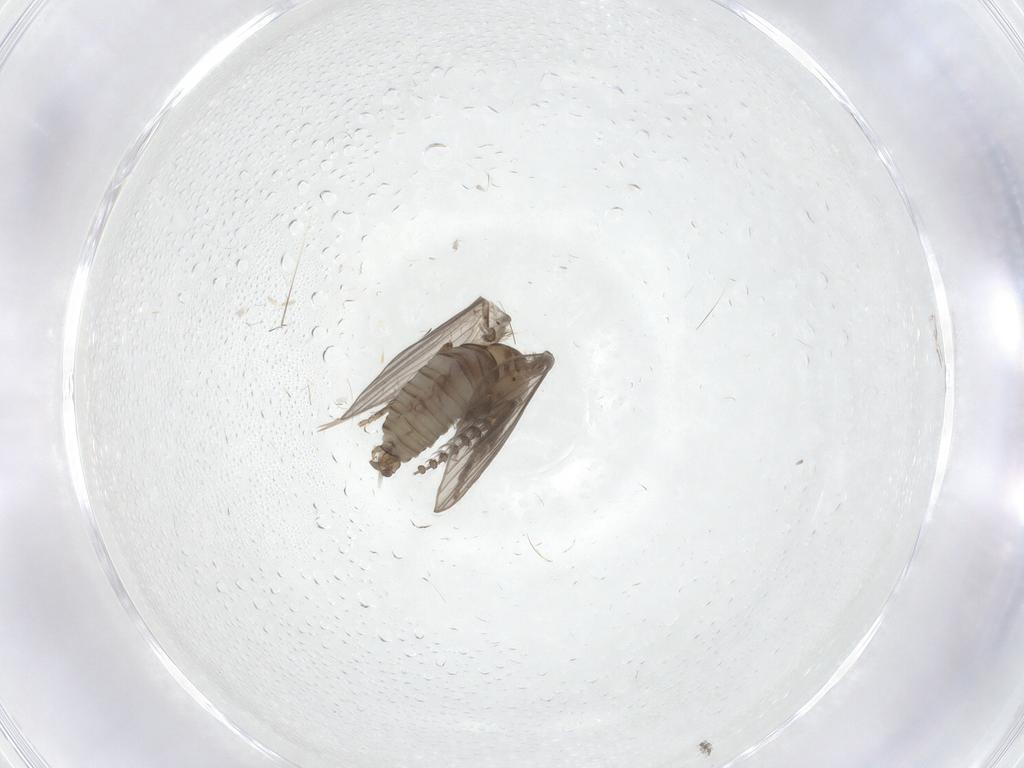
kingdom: Animalia
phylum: Arthropoda
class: Insecta
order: Diptera
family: Psychodidae
